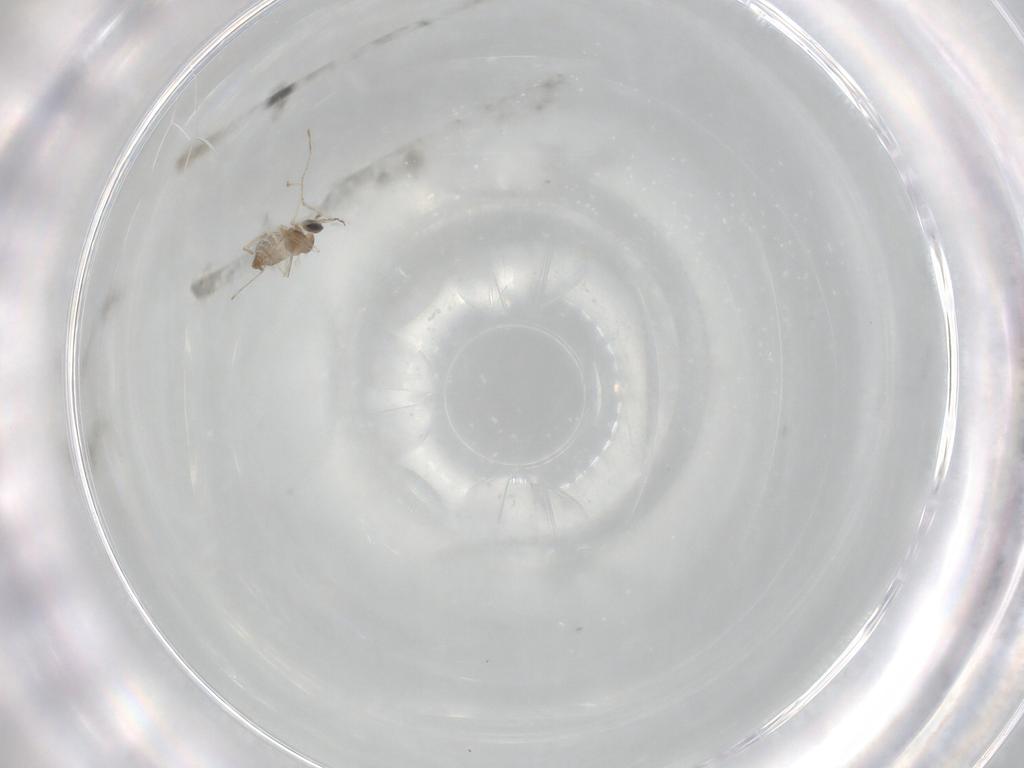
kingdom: Animalia
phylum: Arthropoda
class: Insecta
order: Diptera
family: Cecidomyiidae
